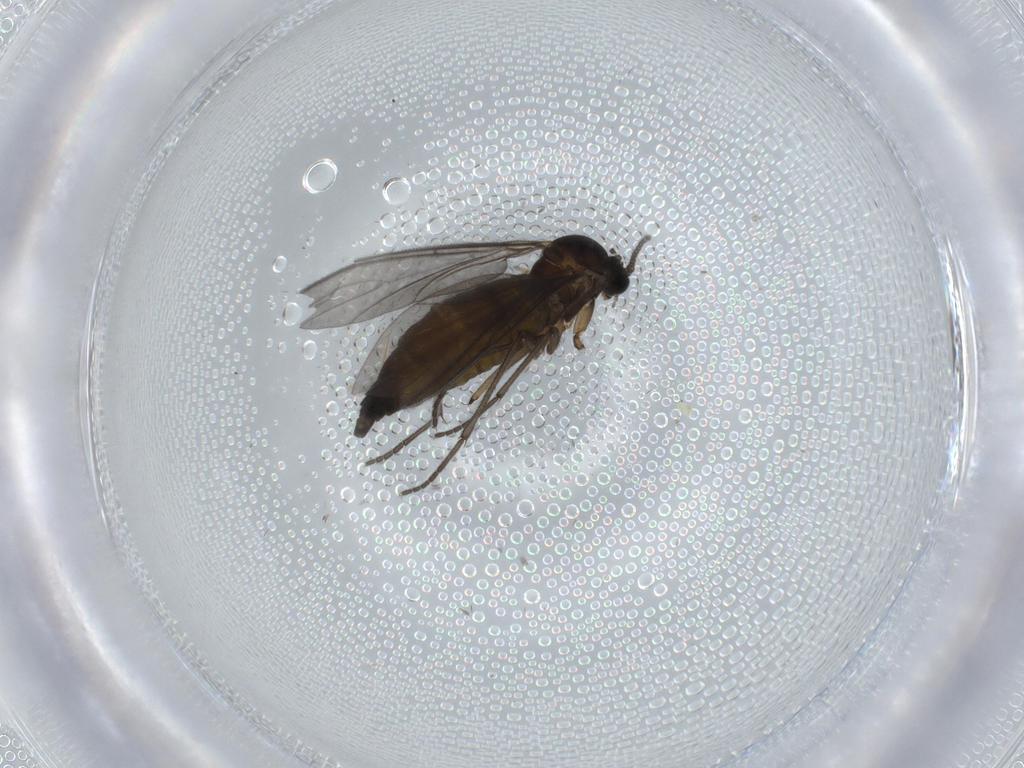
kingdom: Animalia
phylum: Arthropoda
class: Insecta
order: Diptera
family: Sciaridae
